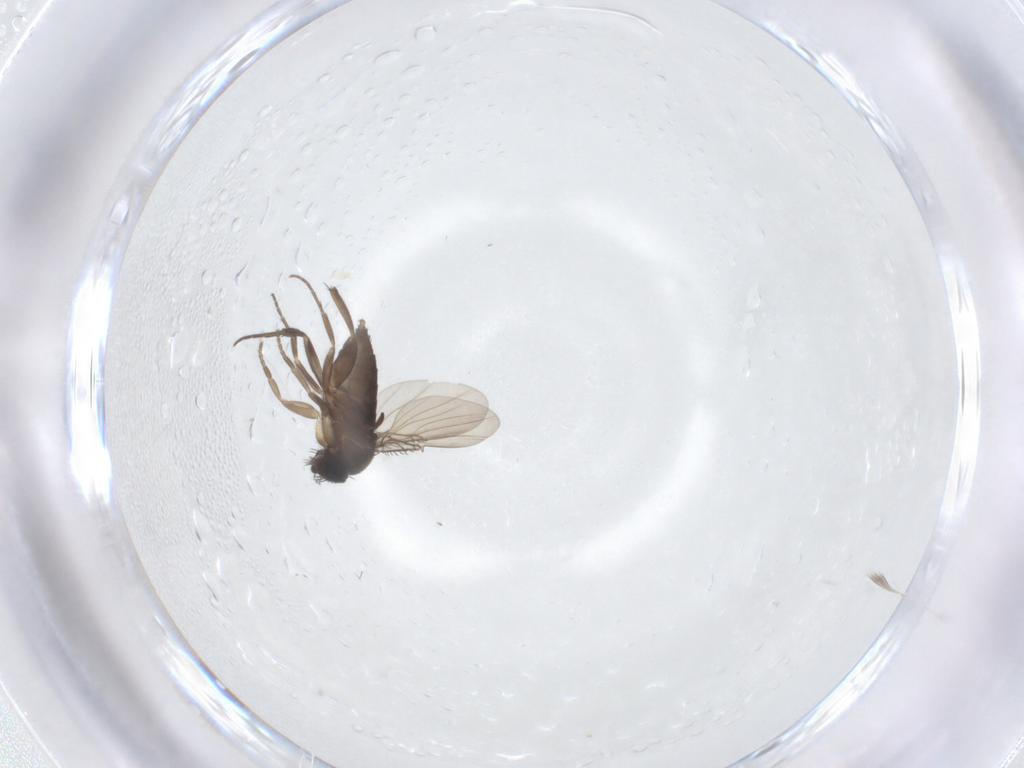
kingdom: Animalia
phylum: Arthropoda
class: Insecta
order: Diptera
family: Phoridae
